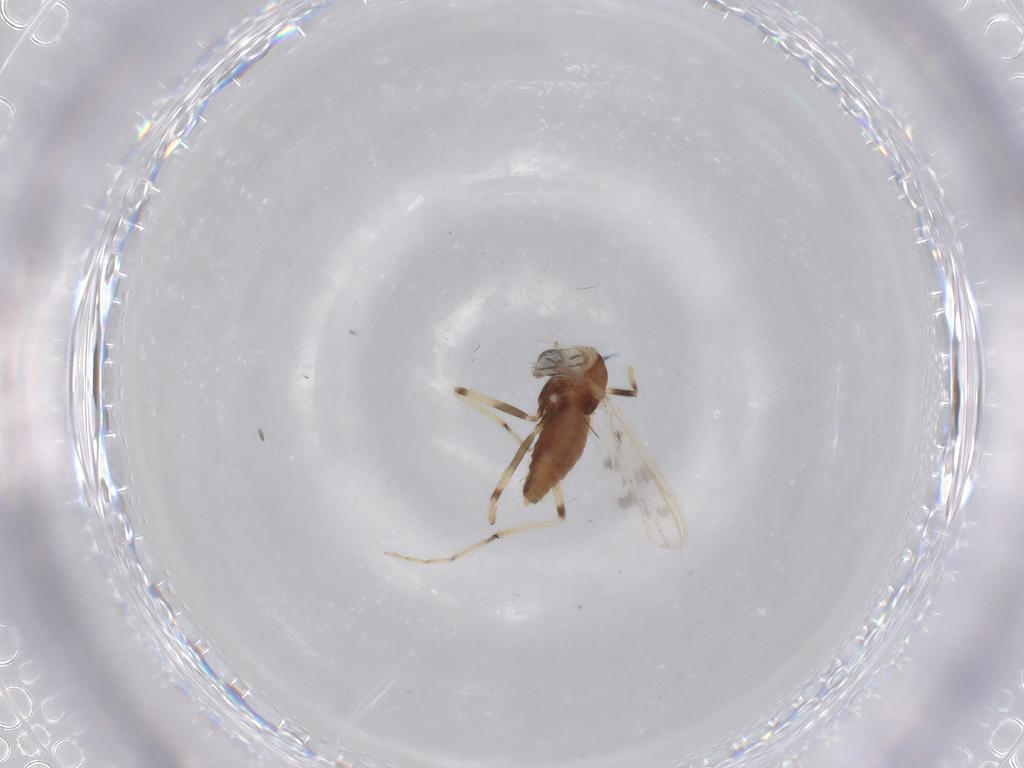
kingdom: Animalia
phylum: Arthropoda
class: Insecta
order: Diptera
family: Chironomidae
